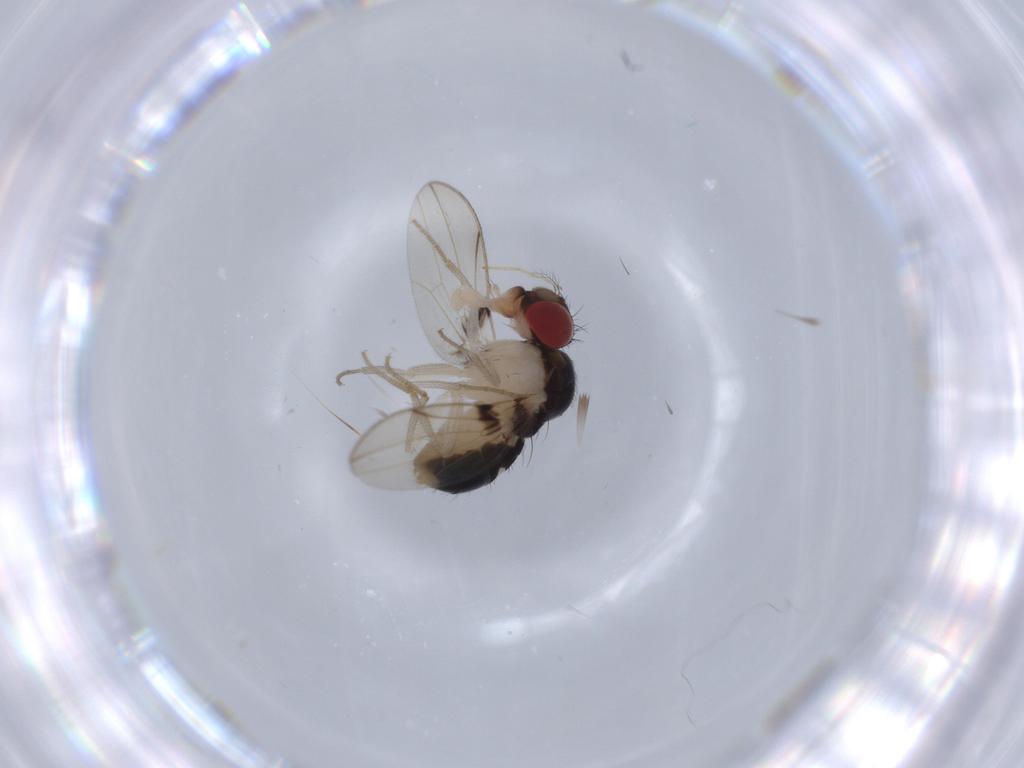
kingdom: Animalia
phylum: Arthropoda
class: Insecta
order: Diptera
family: Drosophilidae
